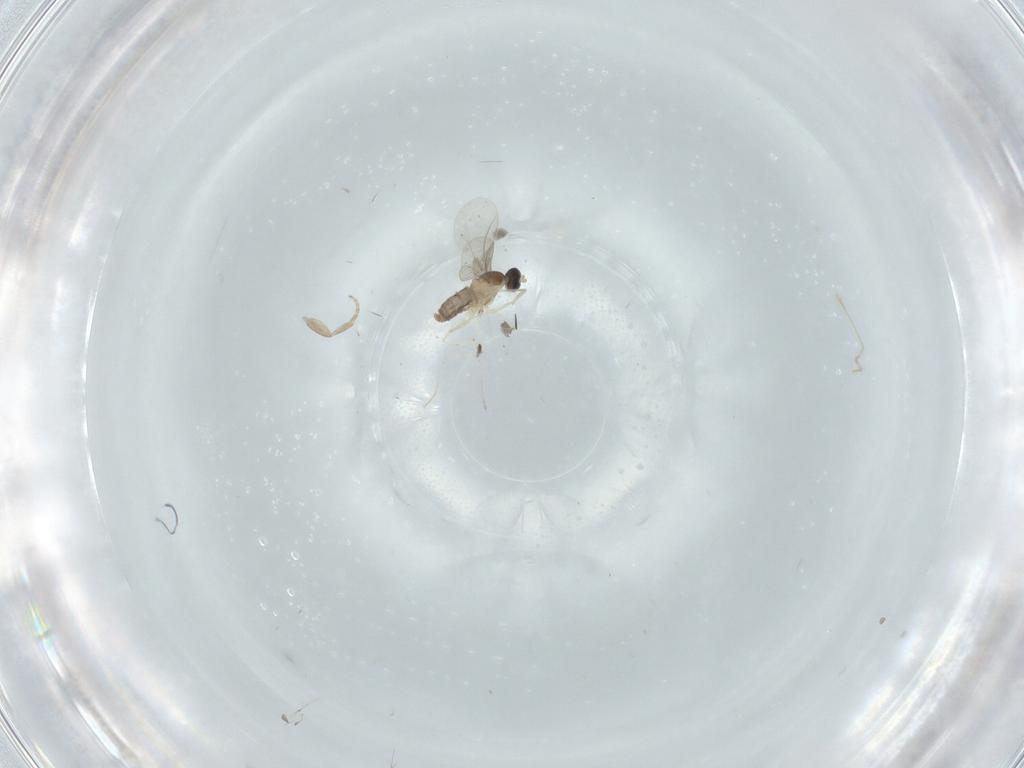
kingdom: Animalia
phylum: Arthropoda
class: Insecta
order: Diptera
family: Cecidomyiidae
